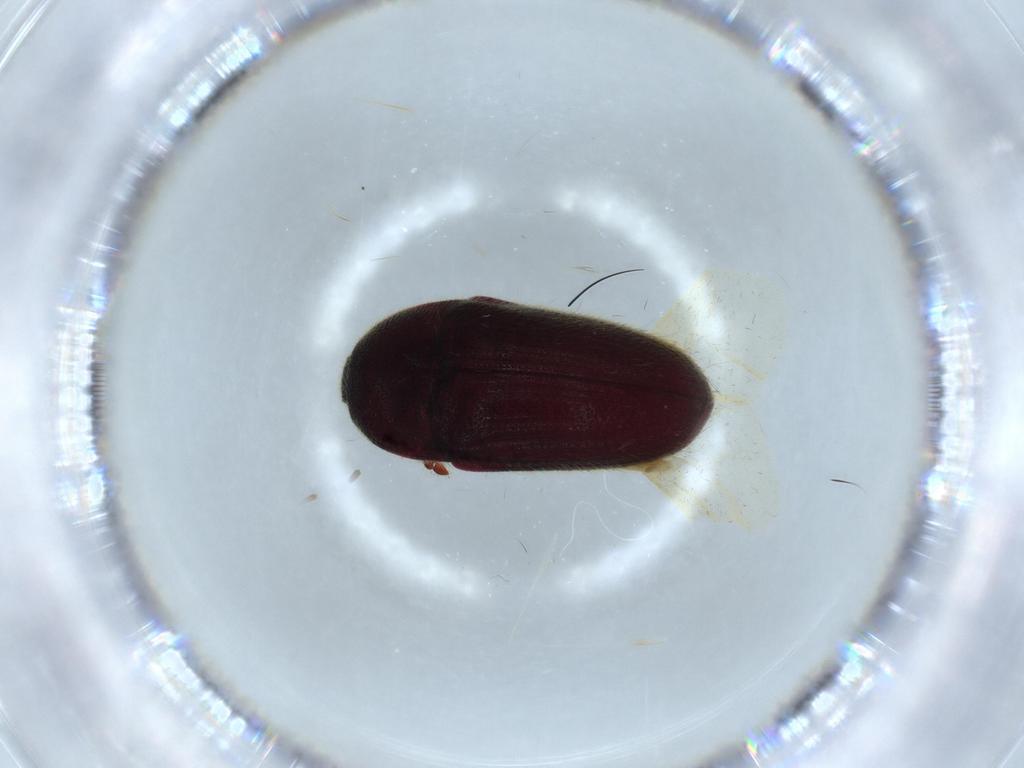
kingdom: Animalia
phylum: Arthropoda
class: Insecta
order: Coleoptera
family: Throscidae
